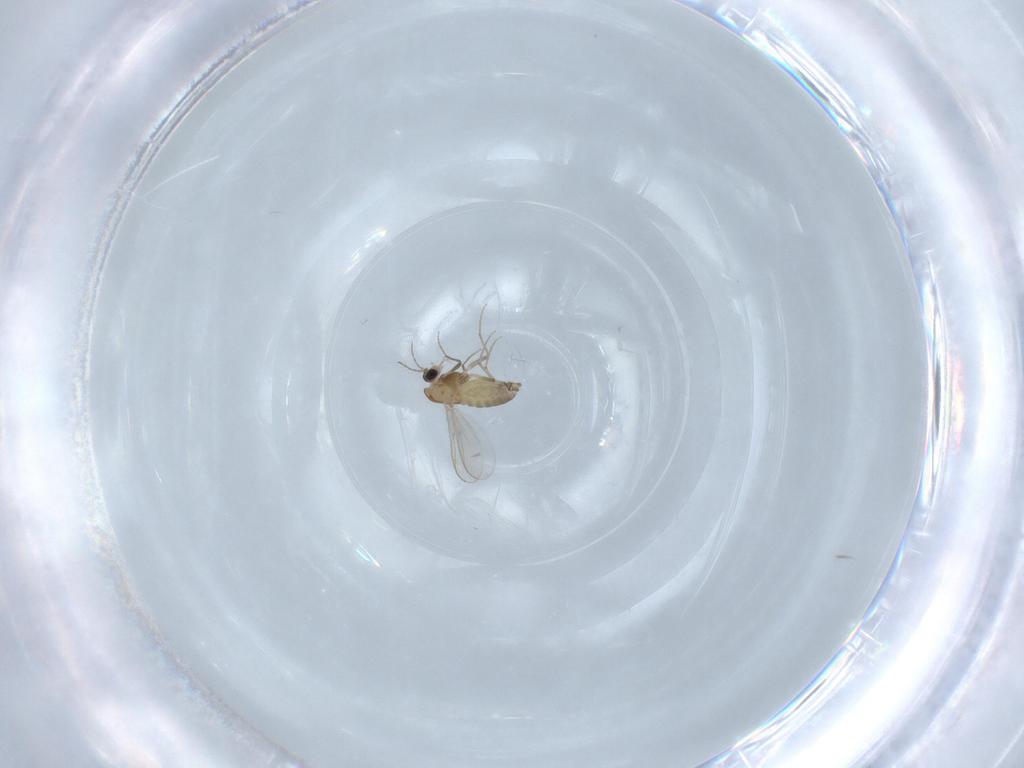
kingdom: Animalia
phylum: Arthropoda
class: Insecta
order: Diptera
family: Chironomidae
